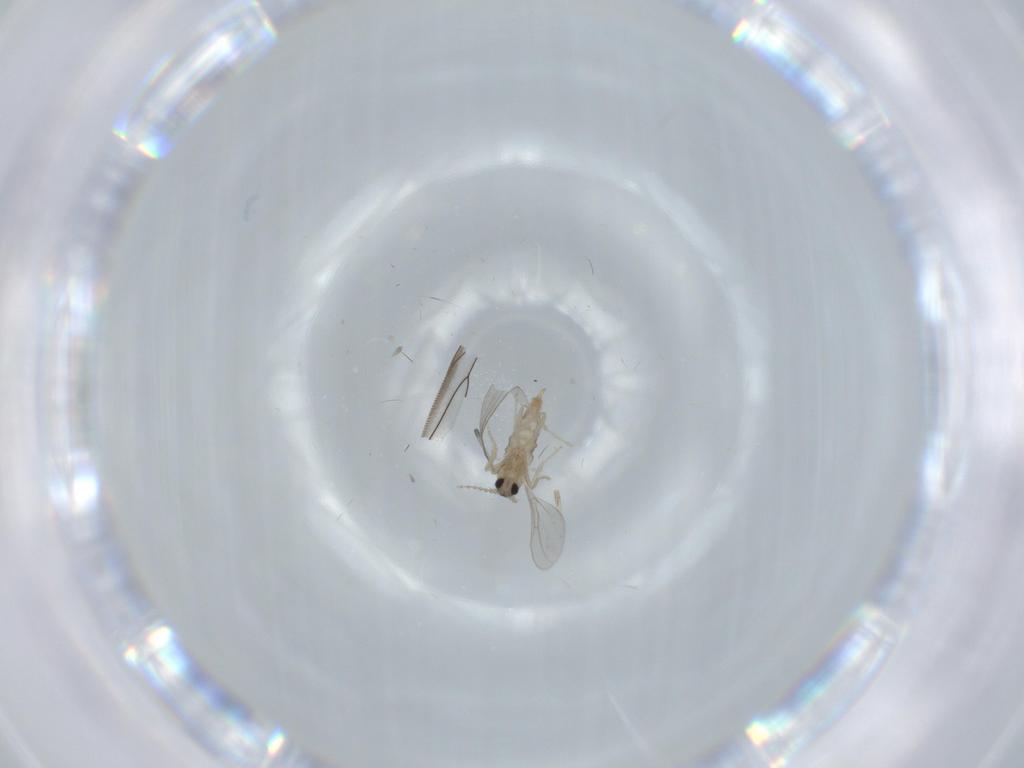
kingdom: Animalia
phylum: Arthropoda
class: Insecta
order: Diptera
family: Cecidomyiidae
